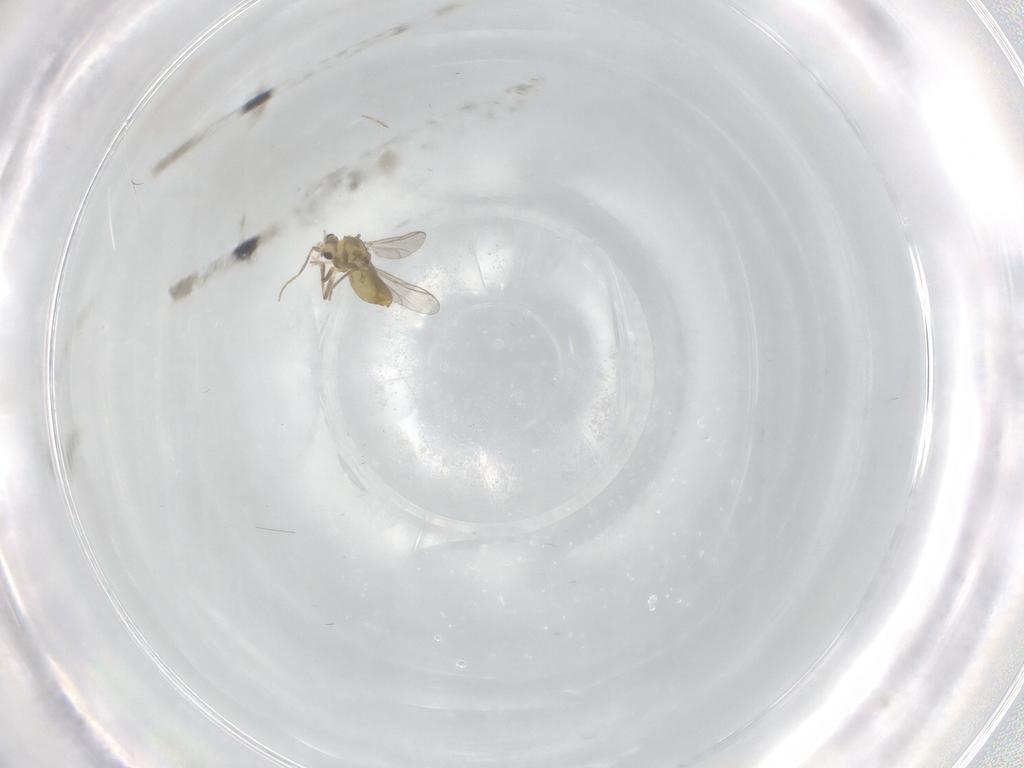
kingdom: Animalia
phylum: Arthropoda
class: Insecta
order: Diptera
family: Chironomidae
